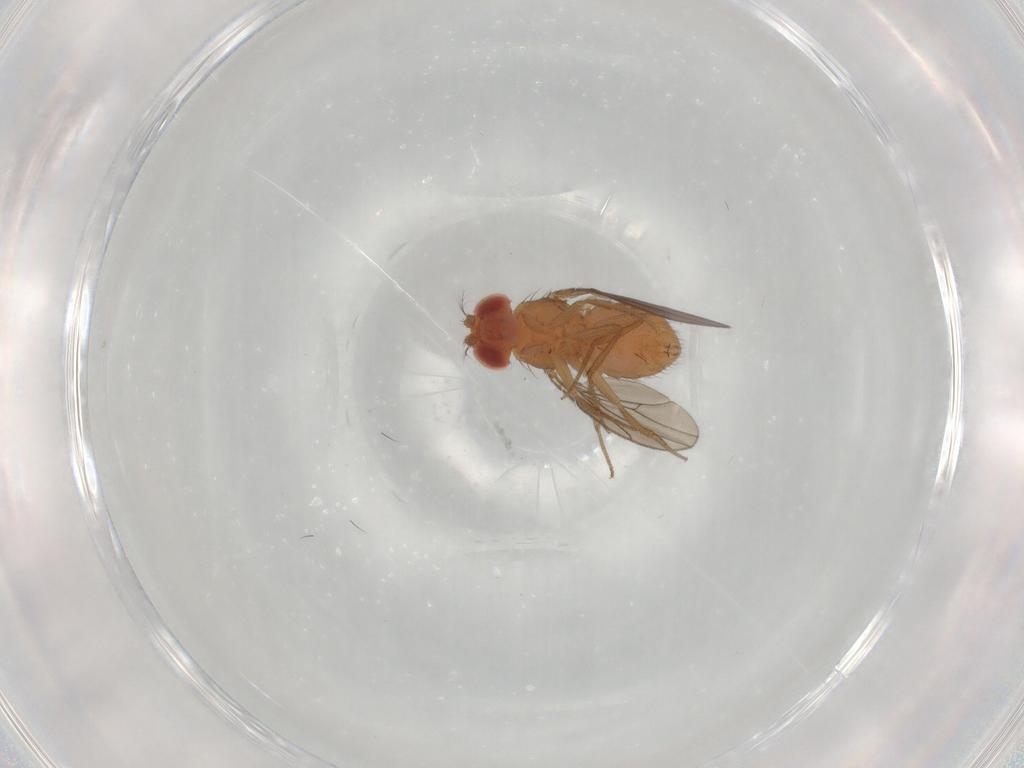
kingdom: Animalia
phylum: Arthropoda
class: Insecta
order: Diptera
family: Drosophilidae
